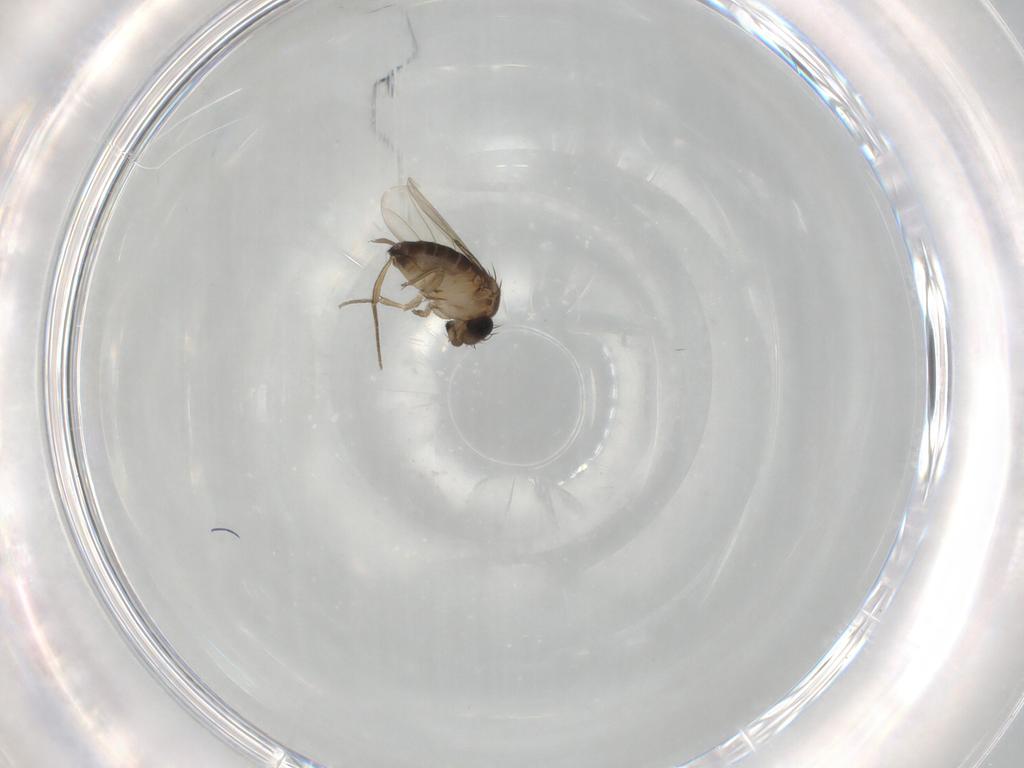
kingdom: Animalia
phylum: Arthropoda
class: Insecta
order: Diptera
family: Phoridae
